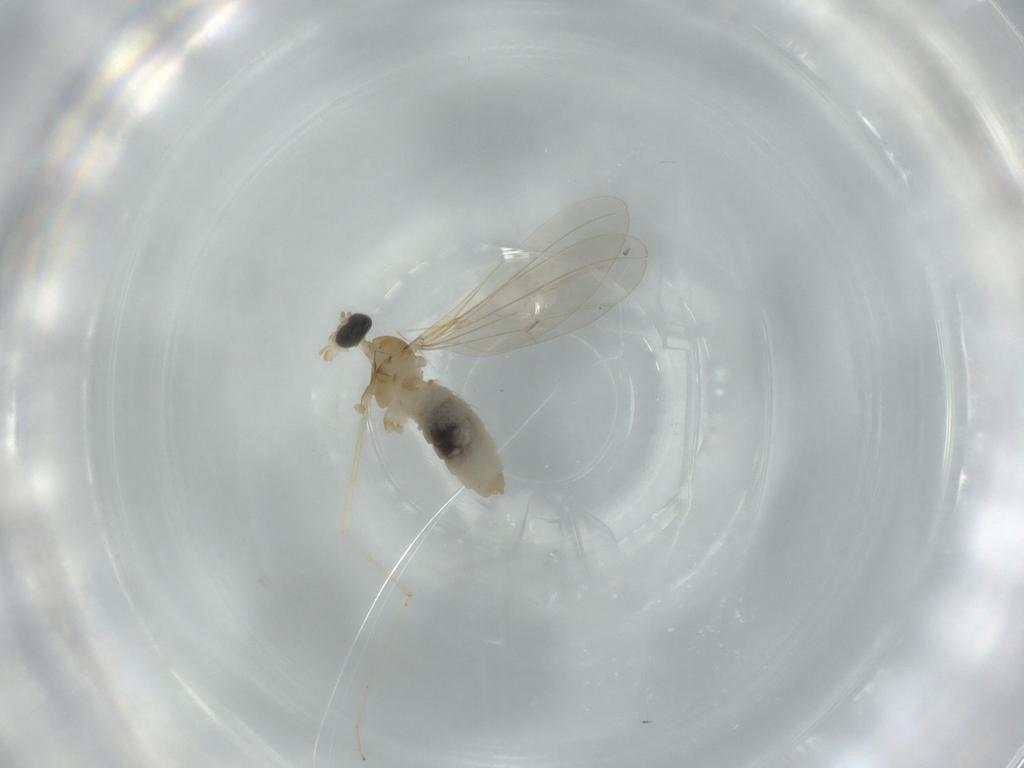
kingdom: Animalia
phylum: Arthropoda
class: Insecta
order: Diptera
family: Cecidomyiidae
